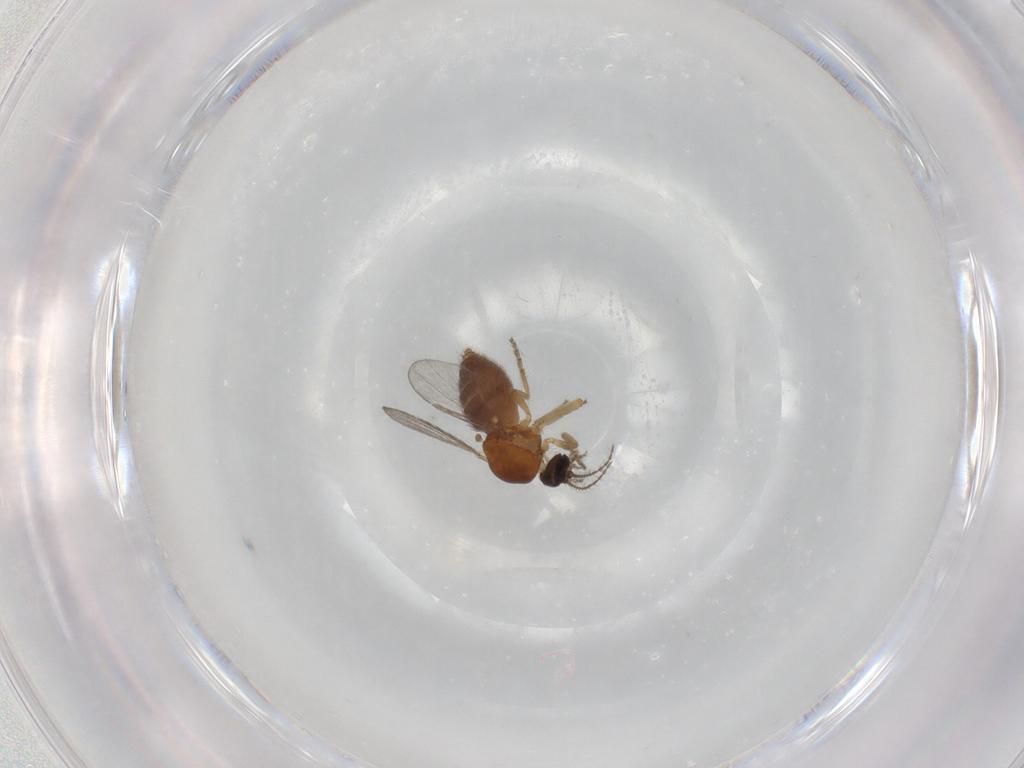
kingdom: Animalia
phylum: Arthropoda
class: Insecta
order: Diptera
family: Ceratopogonidae
